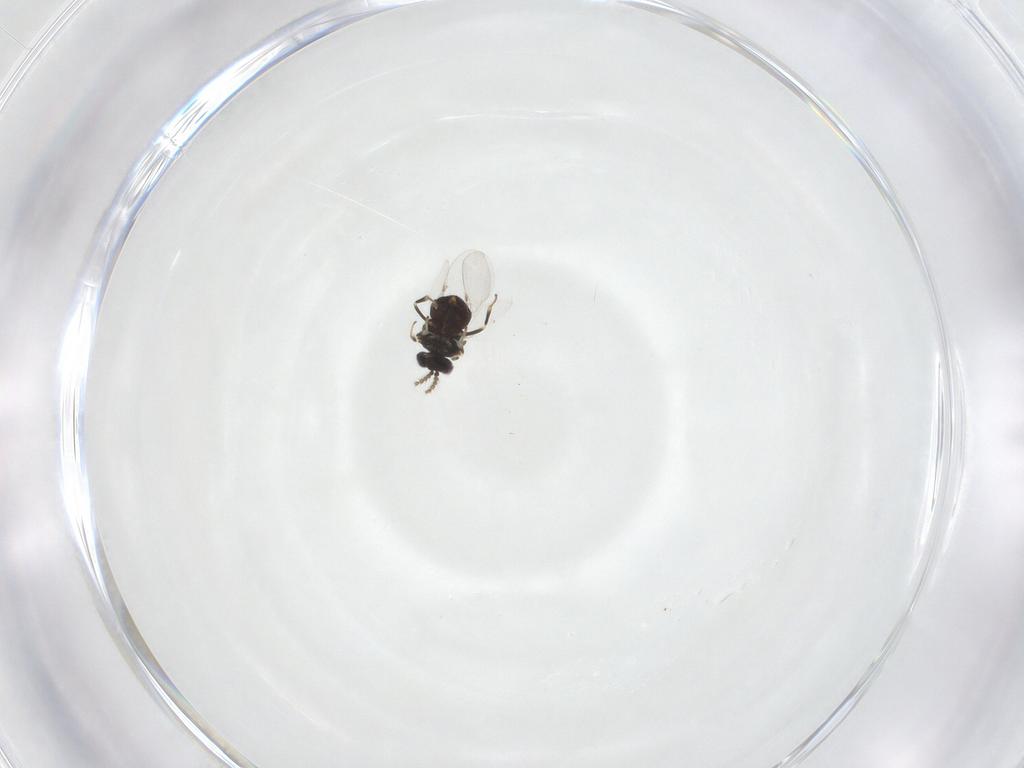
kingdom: Animalia
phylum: Arthropoda
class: Insecta
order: Hymenoptera
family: Encyrtidae
